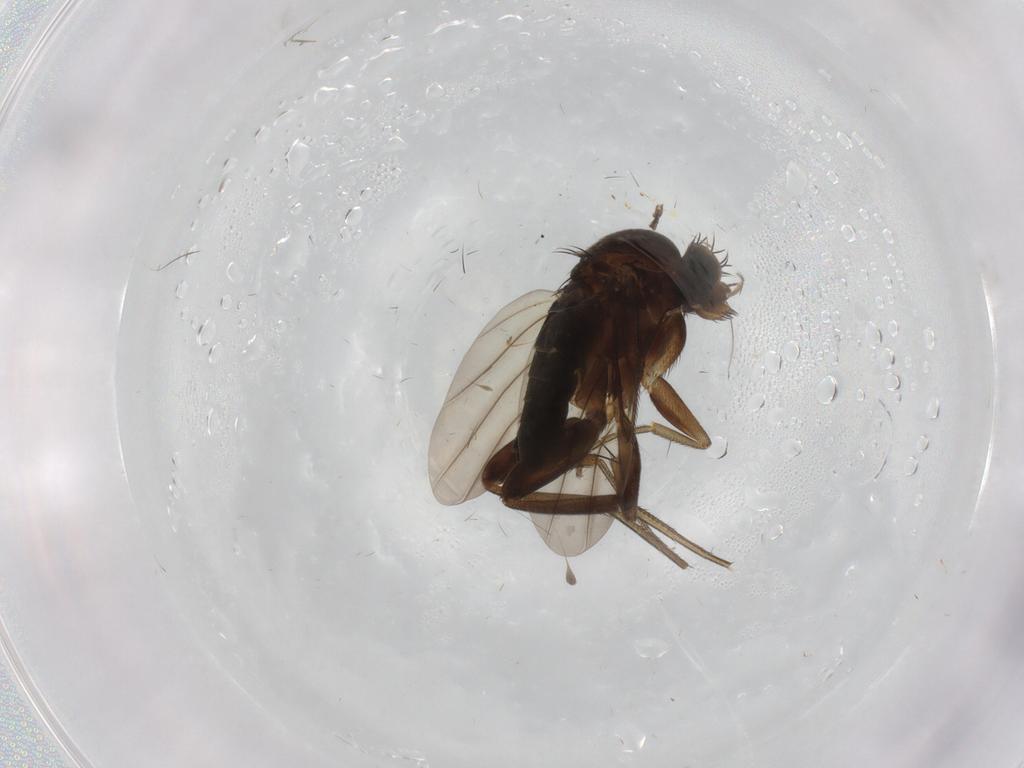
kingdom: Animalia
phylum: Arthropoda
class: Insecta
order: Diptera
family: Phoridae
